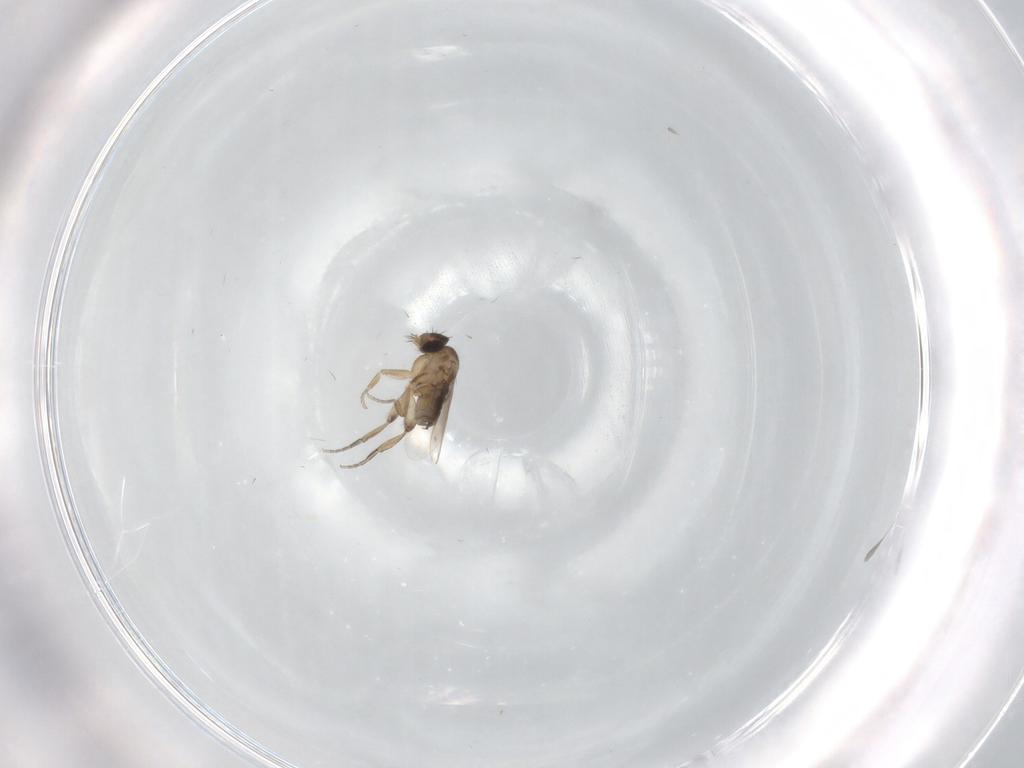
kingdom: Animalia
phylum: Arthropoda
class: Insecta
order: Diptera
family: Phoridae
